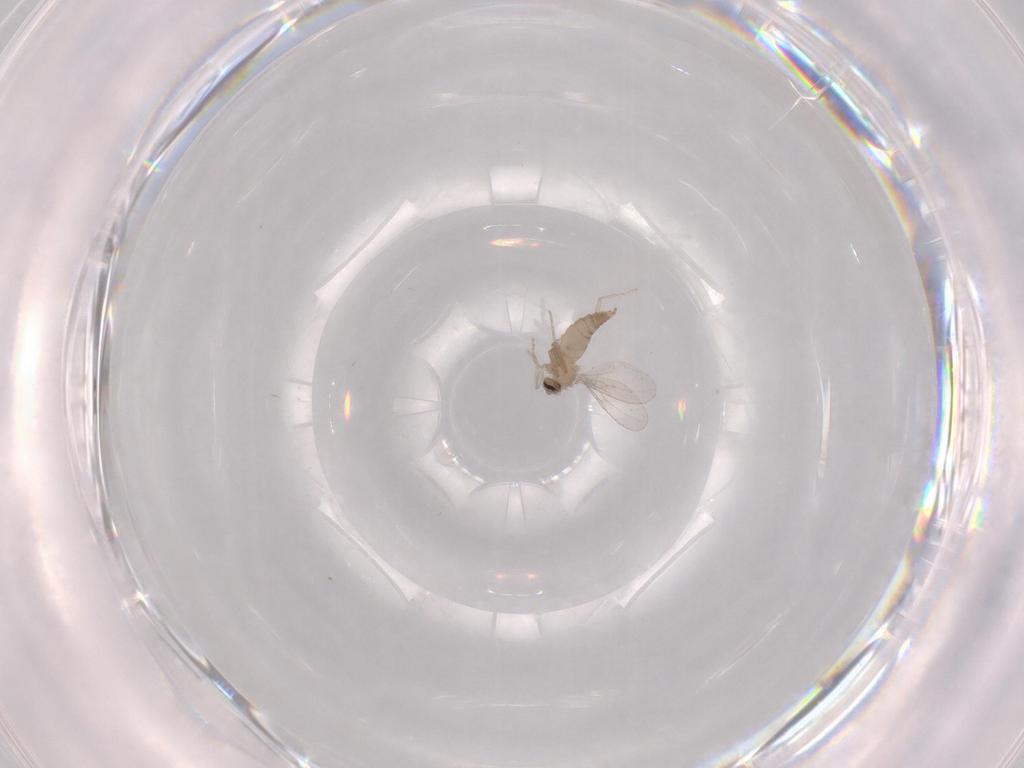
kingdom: Animalia
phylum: Arthropoda
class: Insecta
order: Diptera
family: Cecidomyiidae
